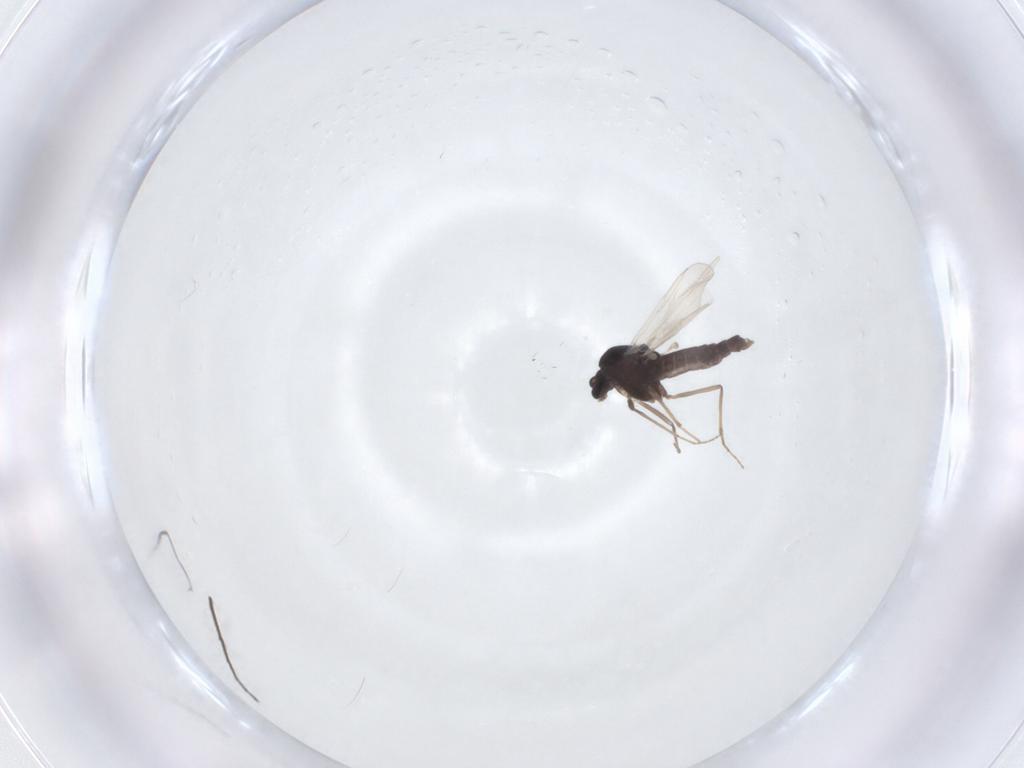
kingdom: Animalia
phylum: Arthropoda
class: Insecta
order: Diptera
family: Chironomidae
